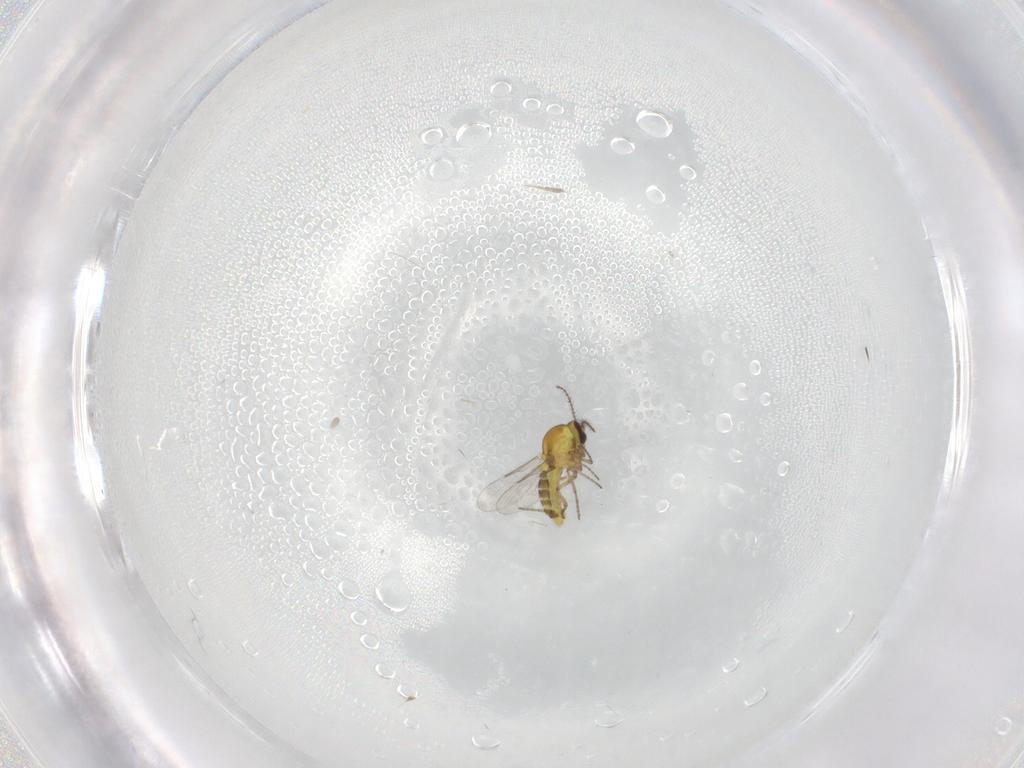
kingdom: Animalia
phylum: Arthropoda
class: Insecta
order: Diptera
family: Ceratopogonidae
